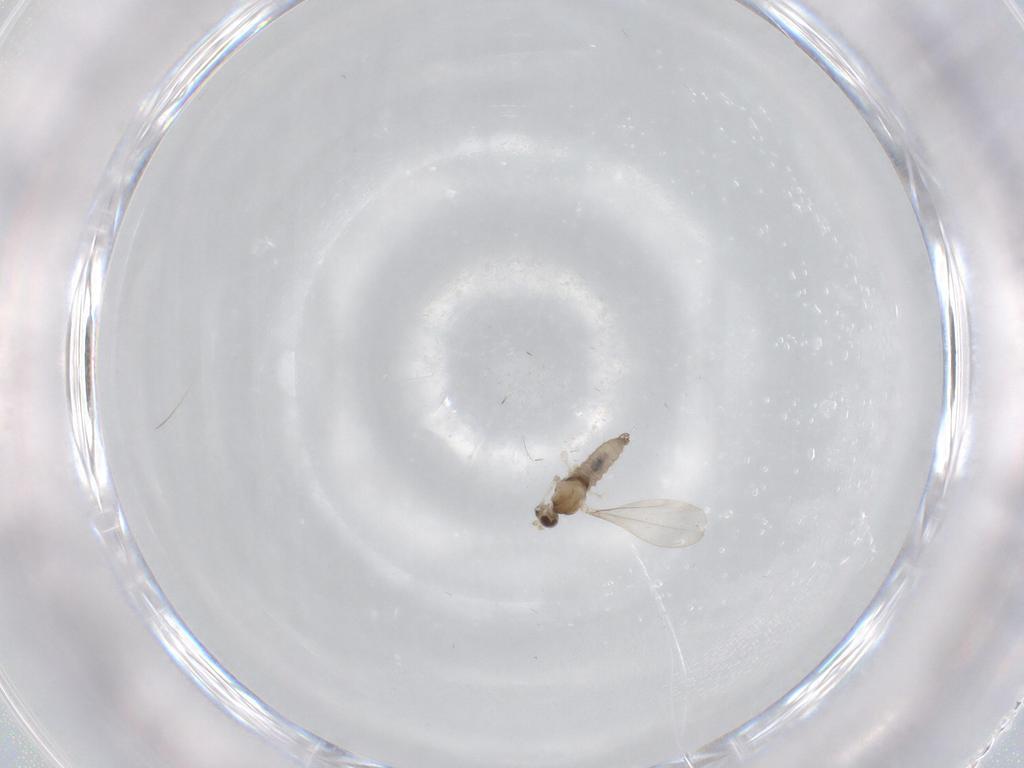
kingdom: Animalia
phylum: Arthropoda
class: Insecta
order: Diptera
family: Cecidomyiidae
